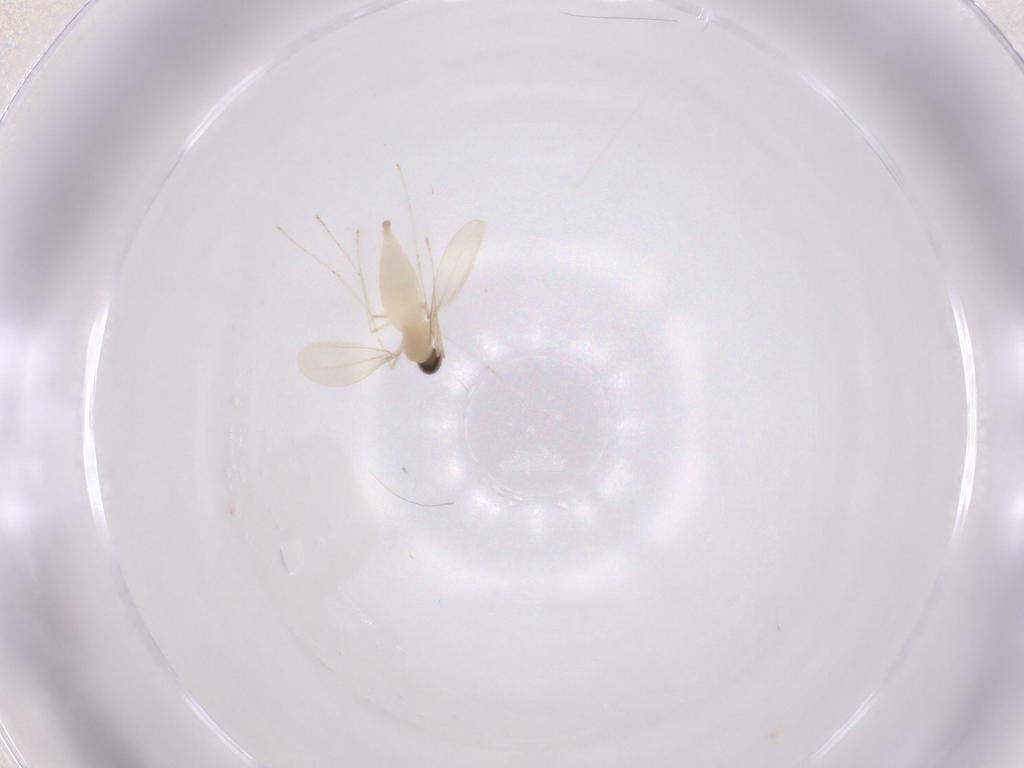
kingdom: Animalia
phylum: Arthropoda
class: Insecta
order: Diptera
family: Cecidomyiidae
